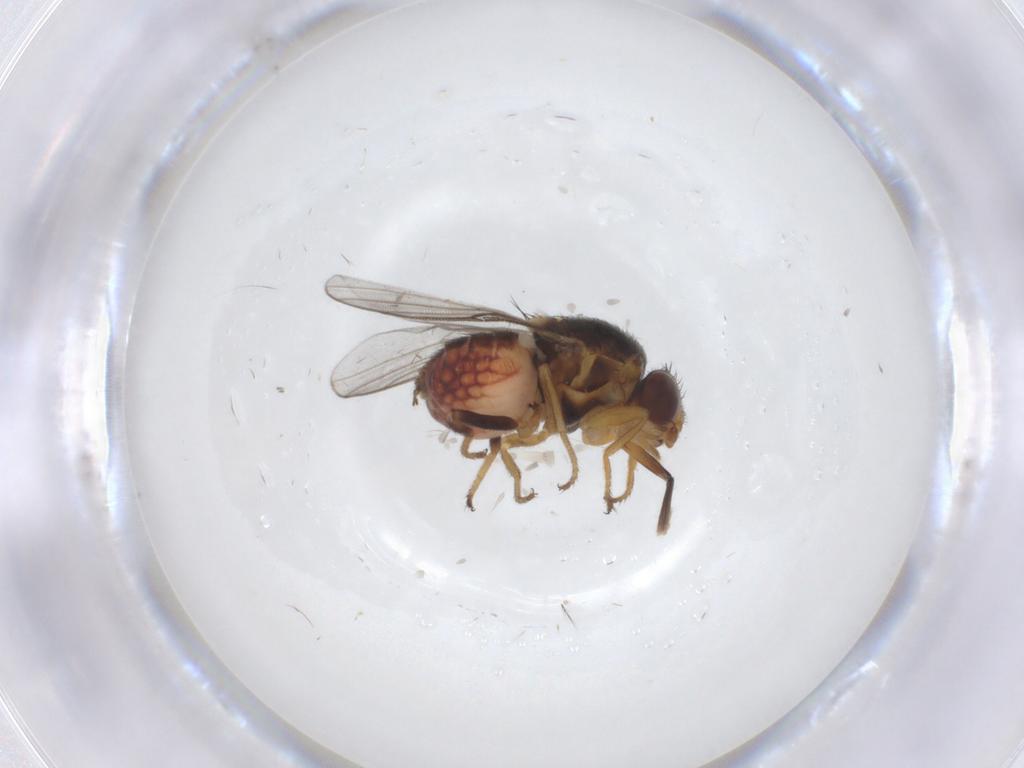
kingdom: Animalia
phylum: Arthropoda
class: Insecta
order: Diptera
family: Chloropidae
